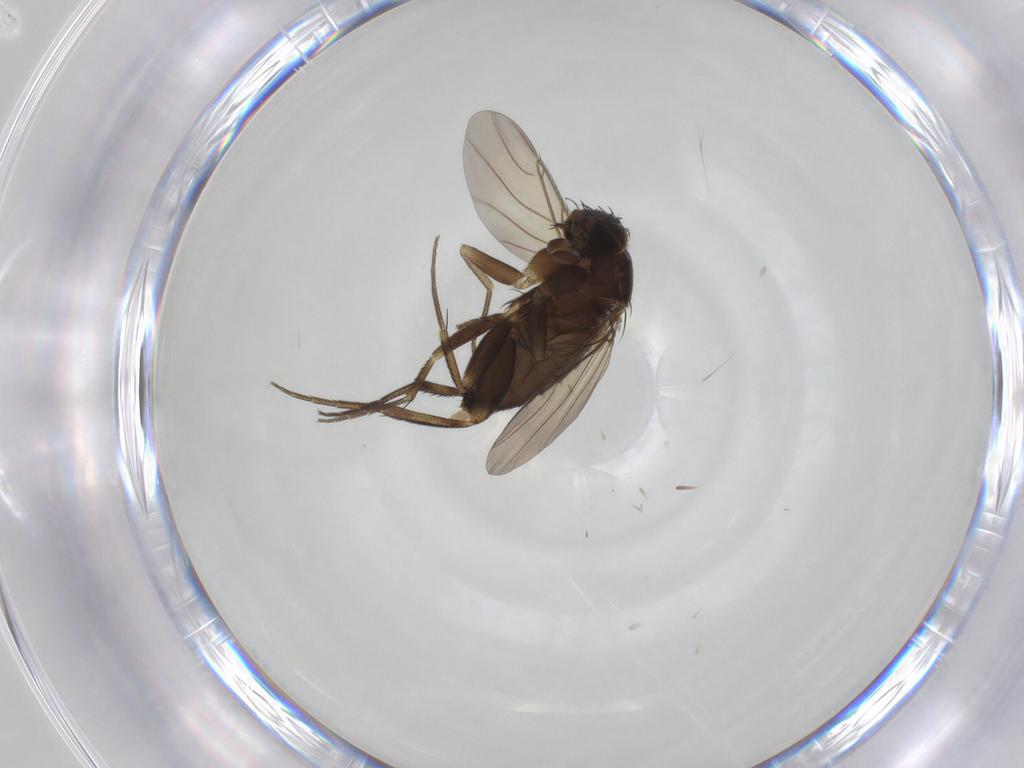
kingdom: Animalia
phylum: Arthropoda
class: Insecta
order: Diptera
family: Phoridae
